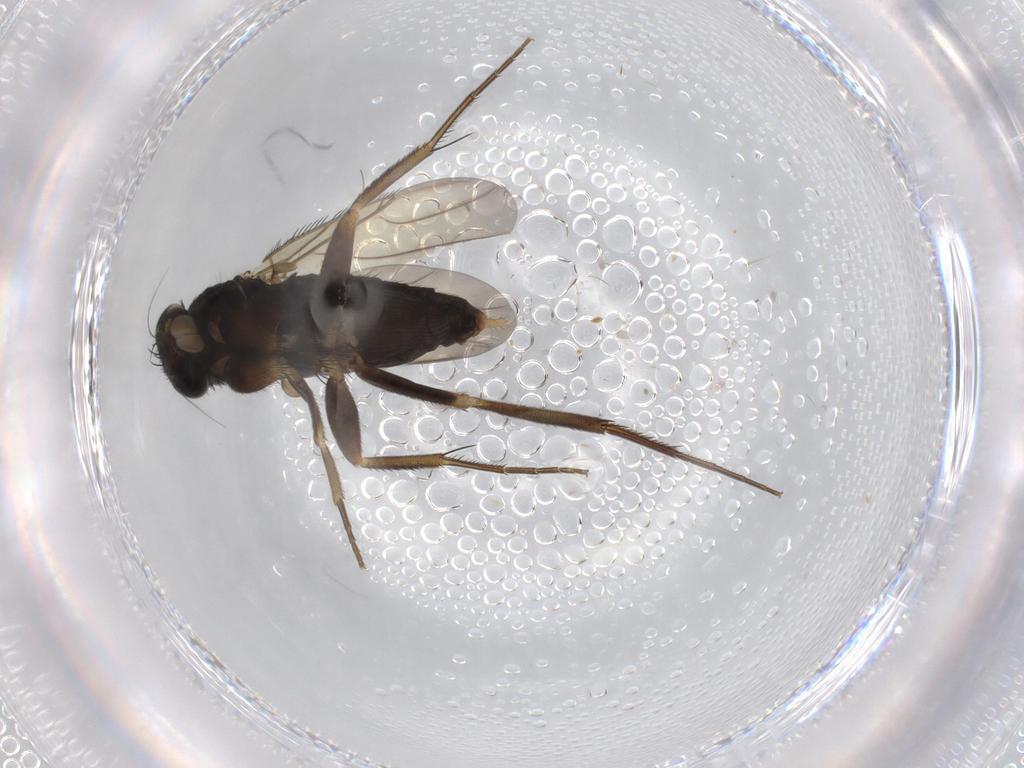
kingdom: Animalia
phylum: Arthropoda
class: Insecta
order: Diptera
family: Phoridae
